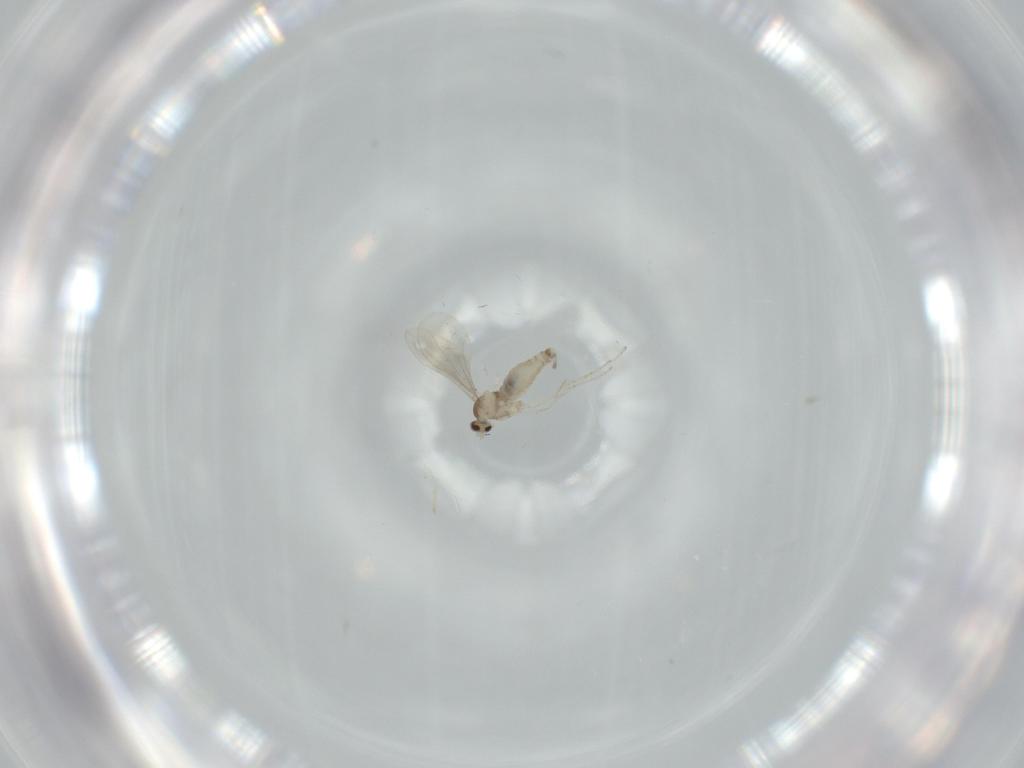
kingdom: Animalia
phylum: Arthropoda
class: Insecta
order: Diptera
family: Cecidomyiidae
